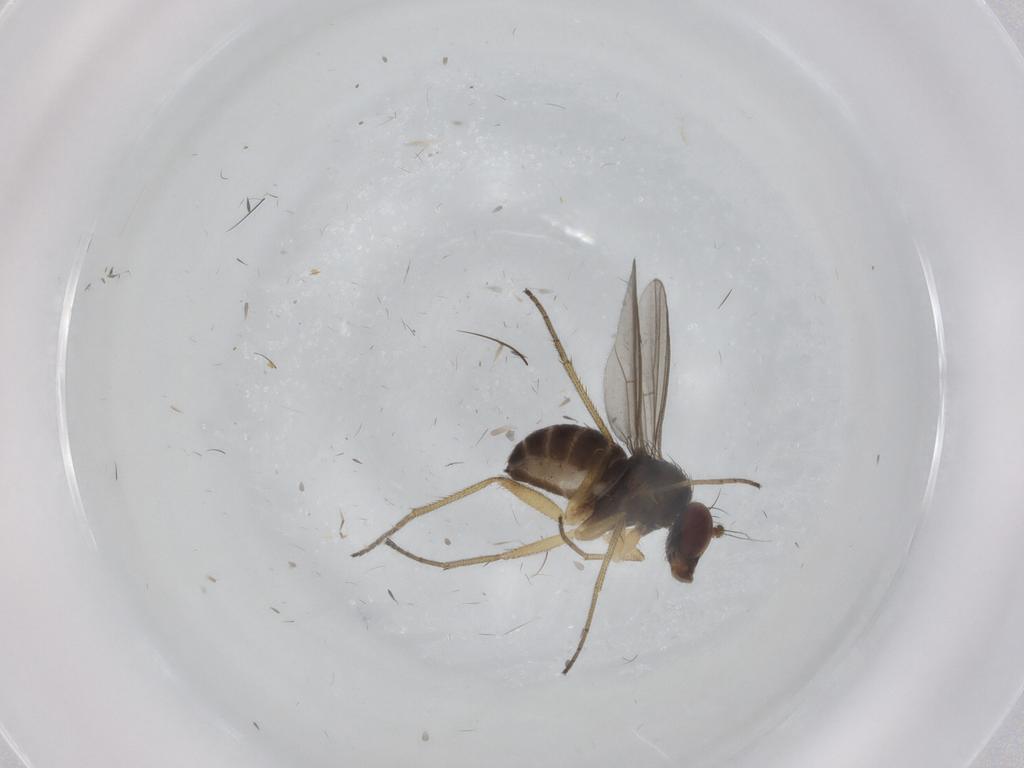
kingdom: Animalia
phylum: Arthropoda
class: Insecta
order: Diptera
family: Dolichopodidae
